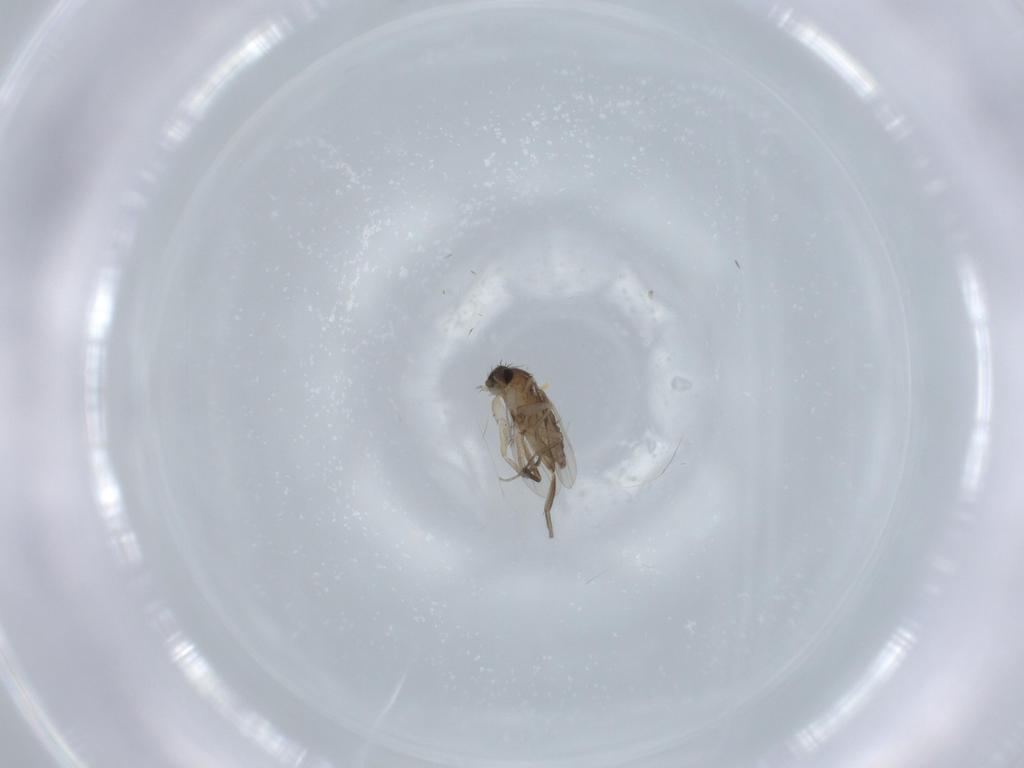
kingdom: Animalia
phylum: Arthropoda
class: Insecta
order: Diptera
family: Phoridae
